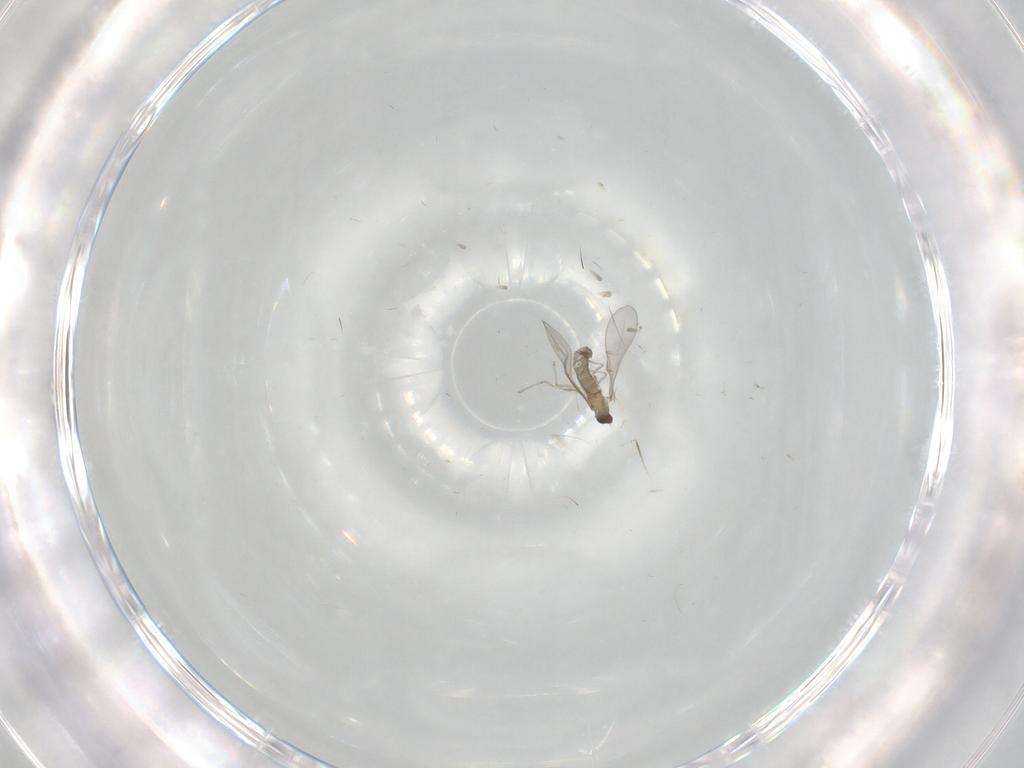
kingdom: Animalia
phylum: Arthropoda
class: Insecta
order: Diptera
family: Cecidomyiidae
